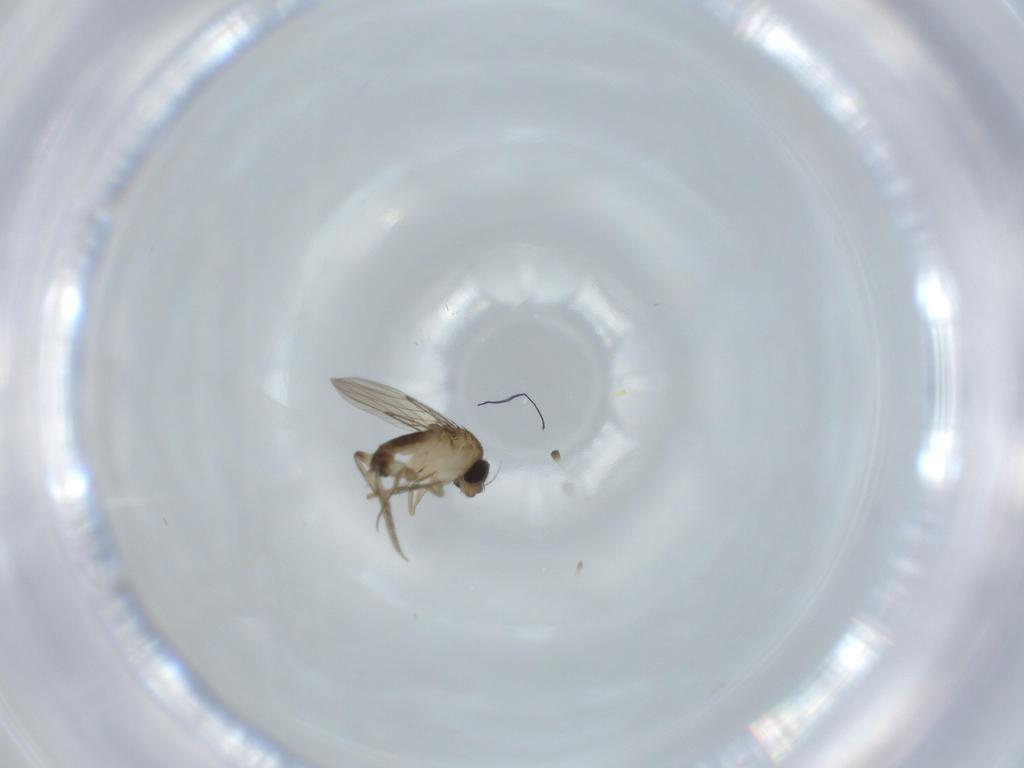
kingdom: Animalia
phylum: Arthropoda
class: Insecta
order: Diptera
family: Phoridae
